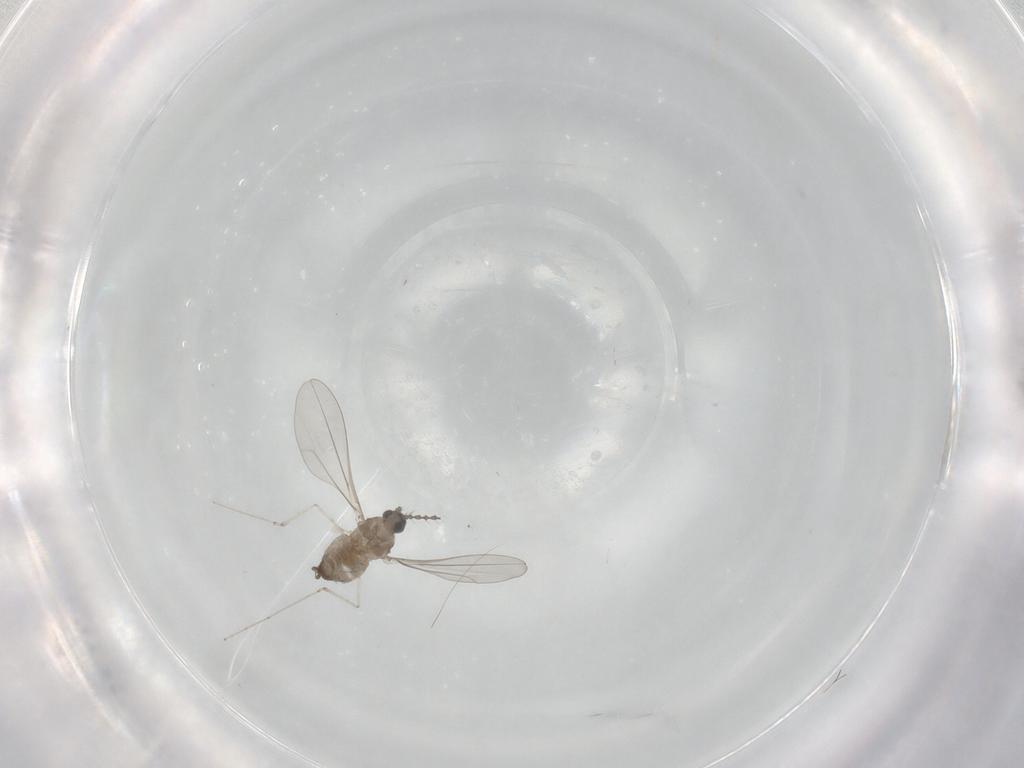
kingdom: Animalia
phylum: Arthropoda
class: Insecta
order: Diptera
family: Cecidomyiidae
